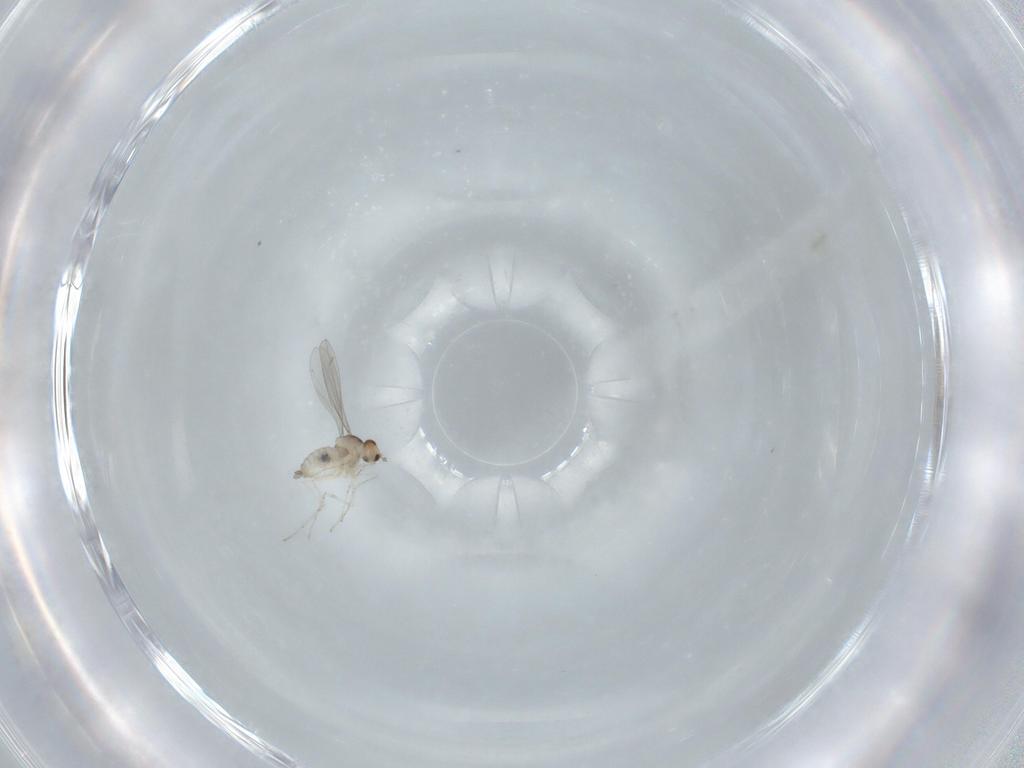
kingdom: Animalia
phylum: Arthropoda
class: Insecta
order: Diptera
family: Cecidomyiidae
